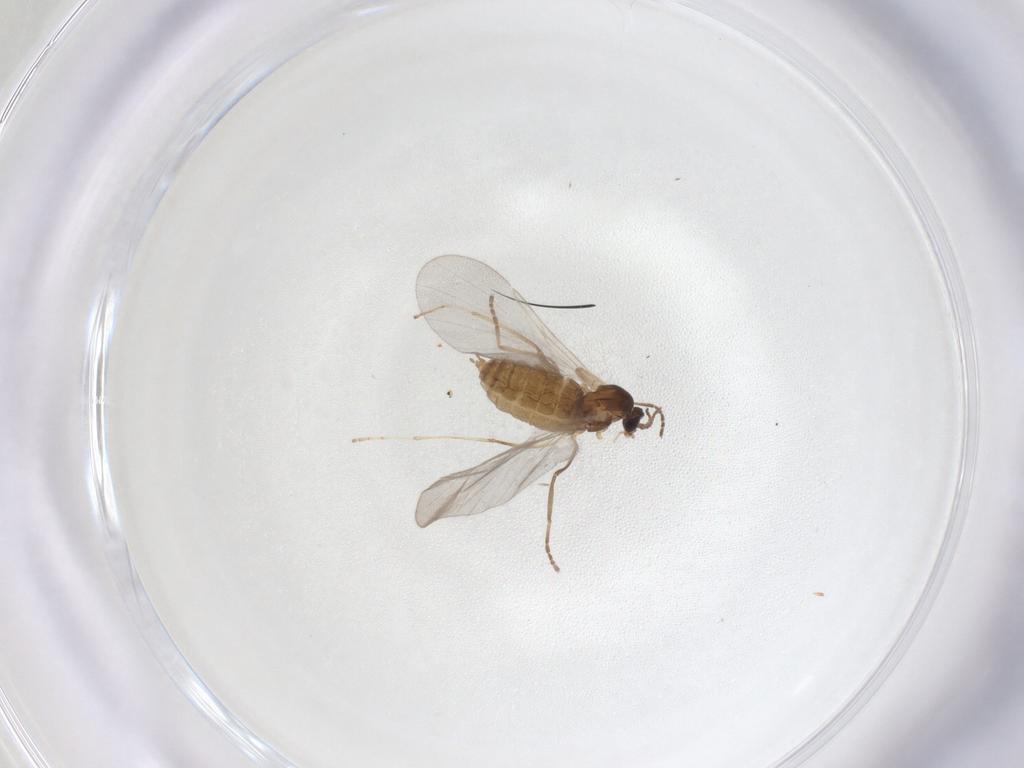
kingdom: Animalia
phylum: Arthropoda
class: Insecta
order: Diptera
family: Cecidomyiidae
